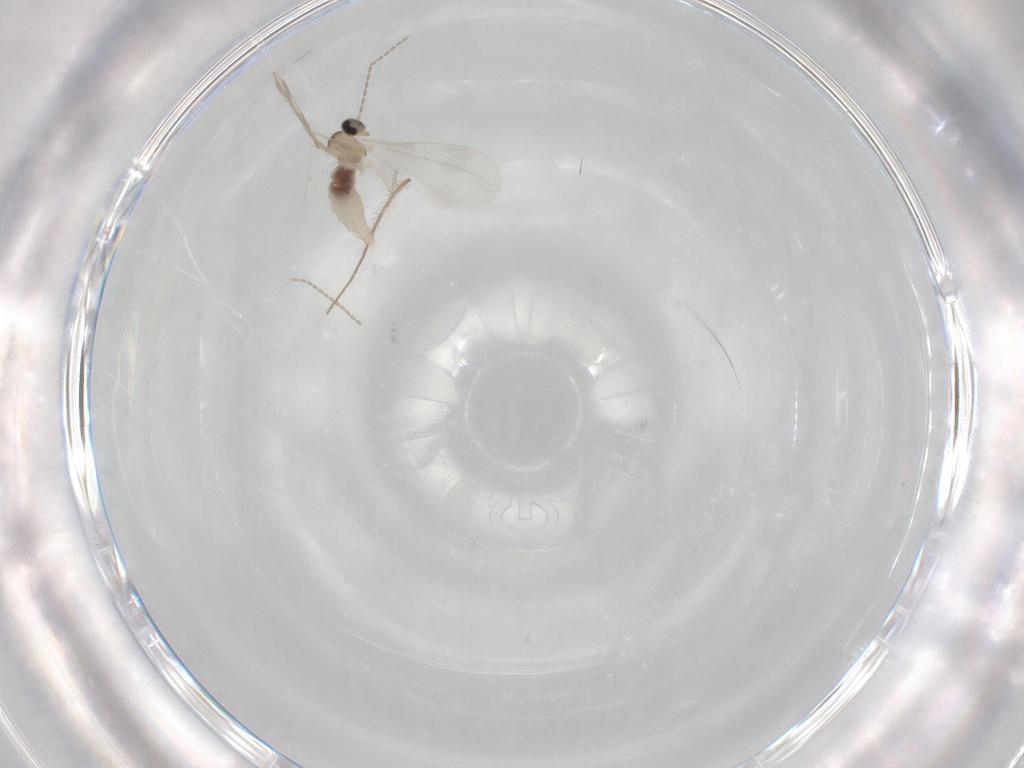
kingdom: Animalia
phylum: Arthropoda
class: Insecta
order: Diptera
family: Cecidomyiidae
